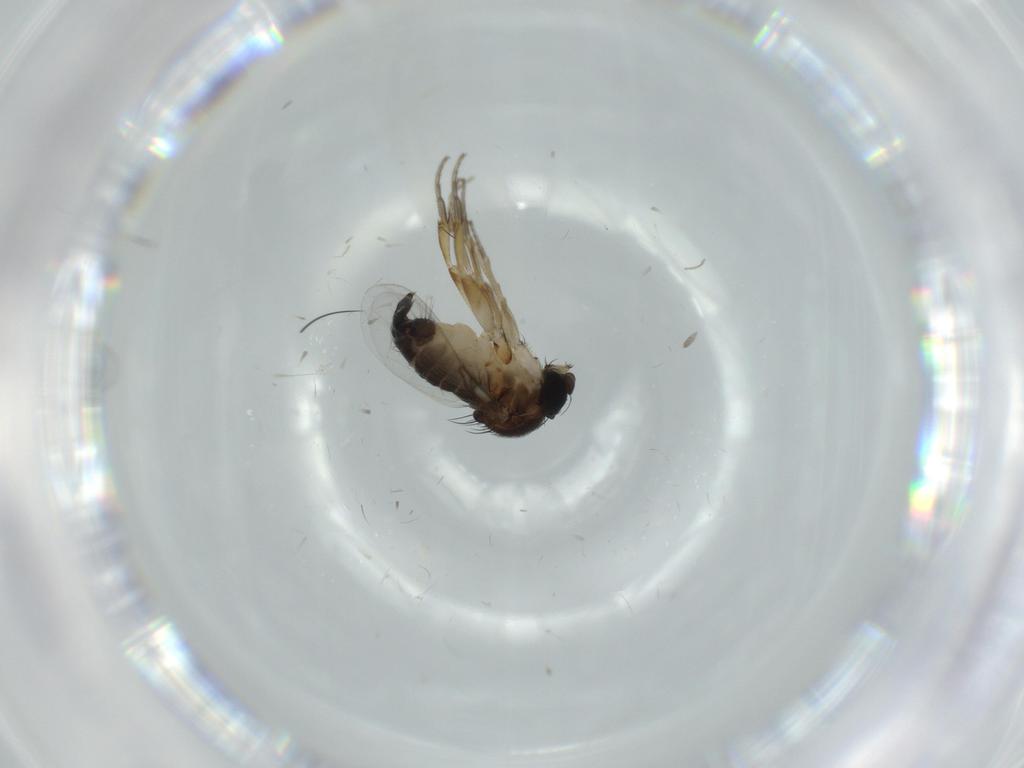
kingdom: Animalia
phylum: Arthropoda
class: Insecta
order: Diptera
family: Phoridae
